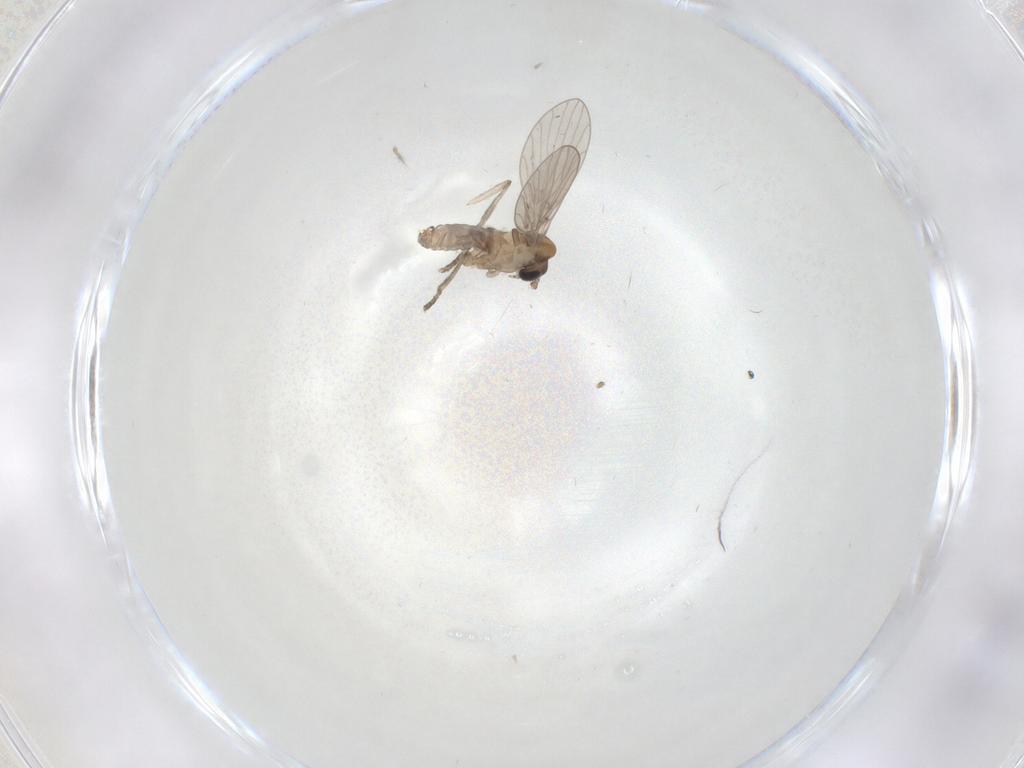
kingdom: Animalia
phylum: Arthropoda
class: Insecta
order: Diptera
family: Psychodidae
